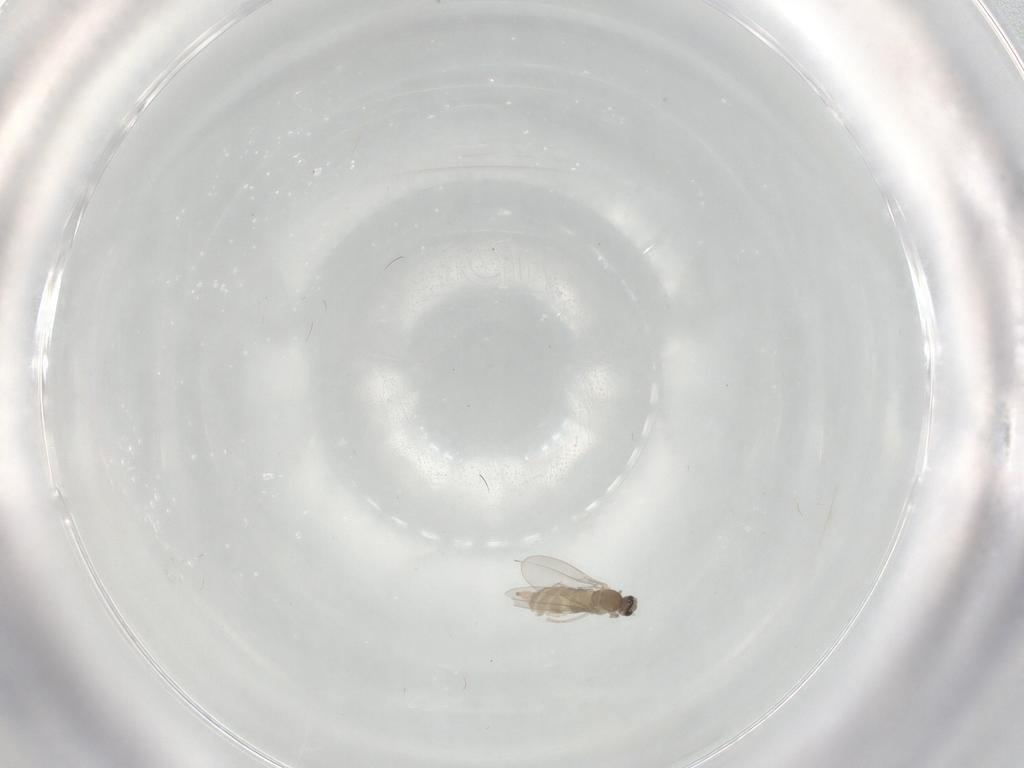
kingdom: Animalia
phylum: Arthropoda
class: Insecta
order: Diptera
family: Cecidomyiidae
